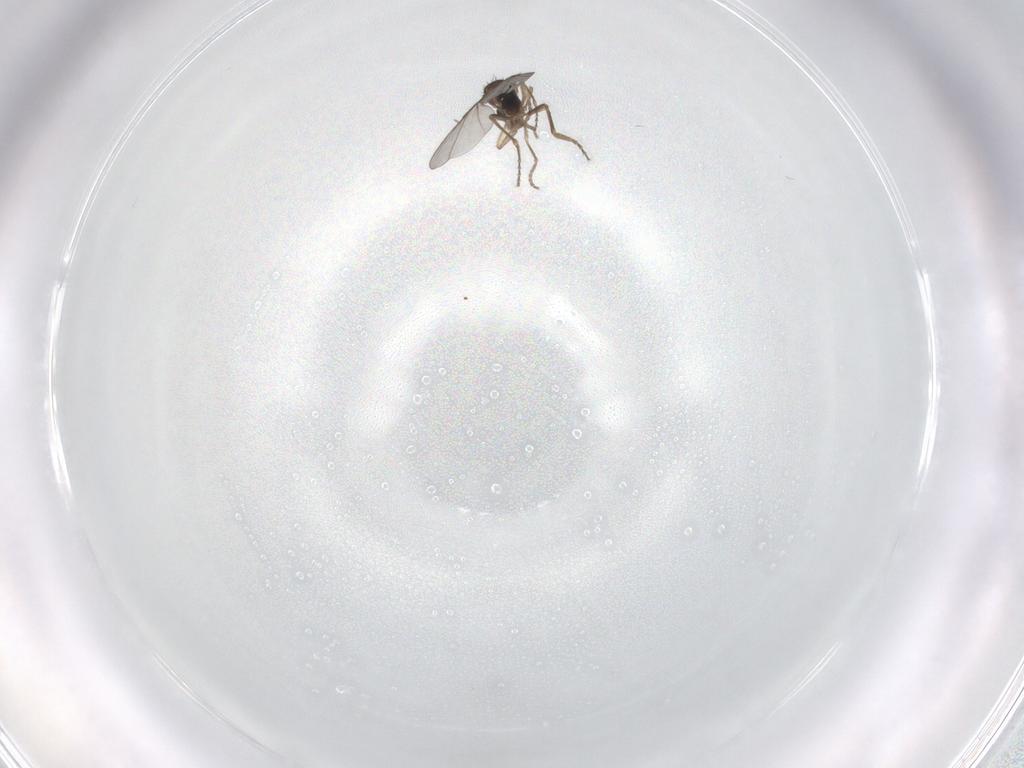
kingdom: Animalia
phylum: Arthropoda
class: Insecta
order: Diptera
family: Phoridae
